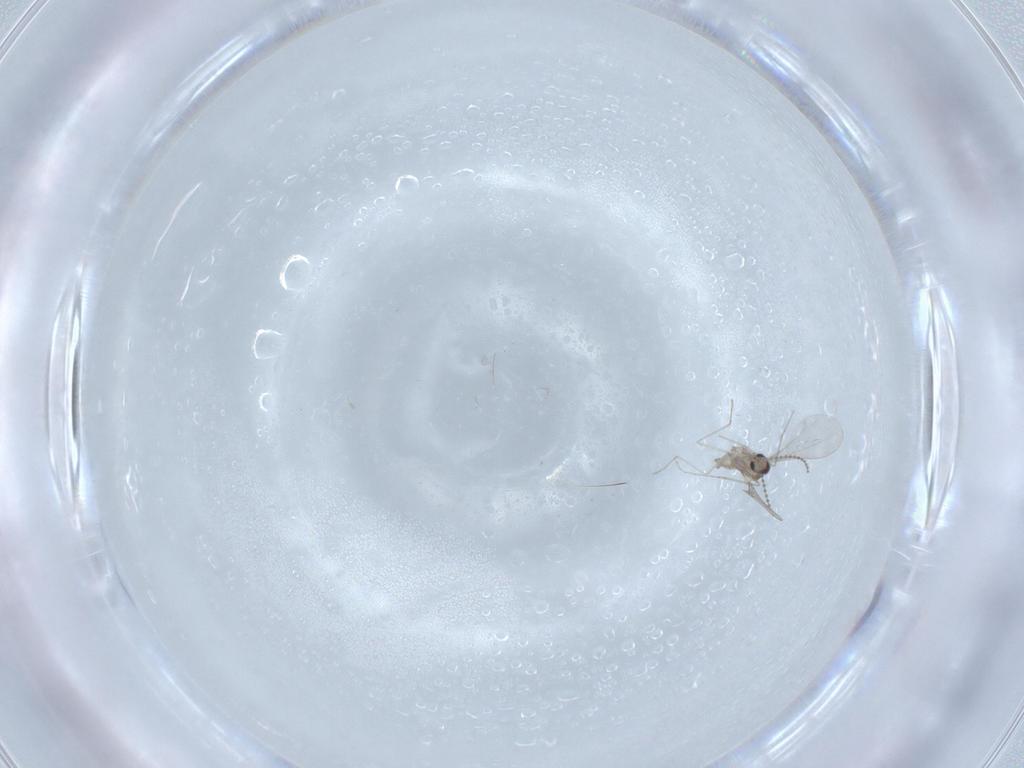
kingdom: Animalia
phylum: Arthropoda
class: Insecta
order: Diptera
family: Cecidomyiidae
